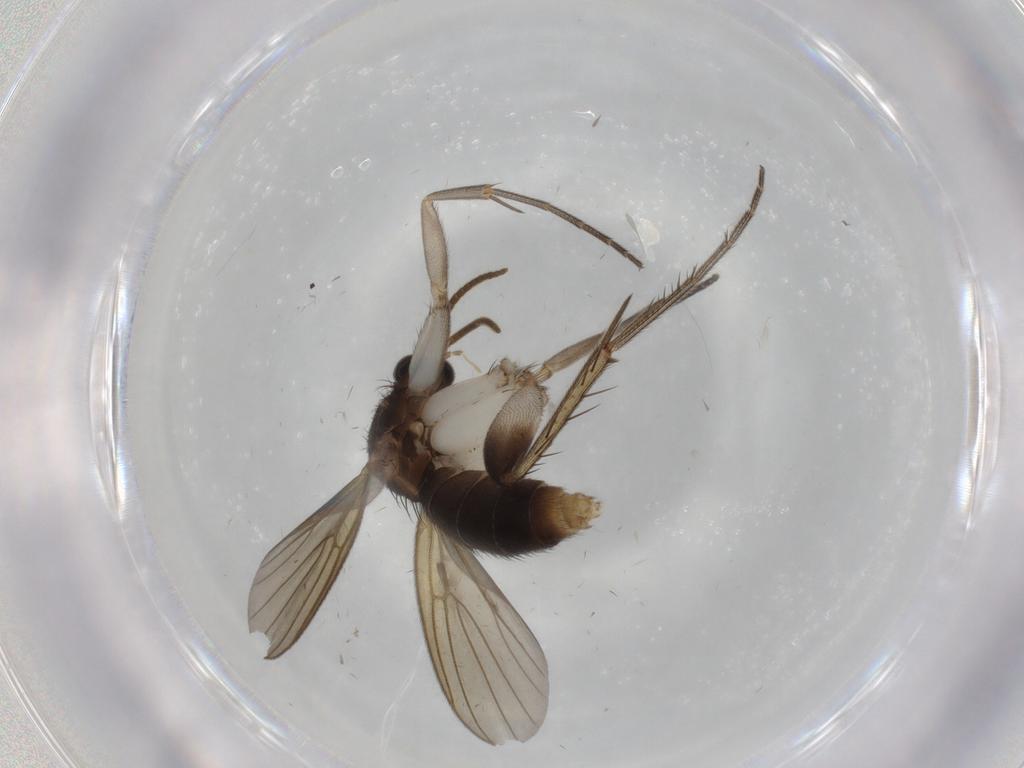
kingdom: Animalia
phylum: Arthropoda
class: Insecta
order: Diptera
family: Mycetophilidae
